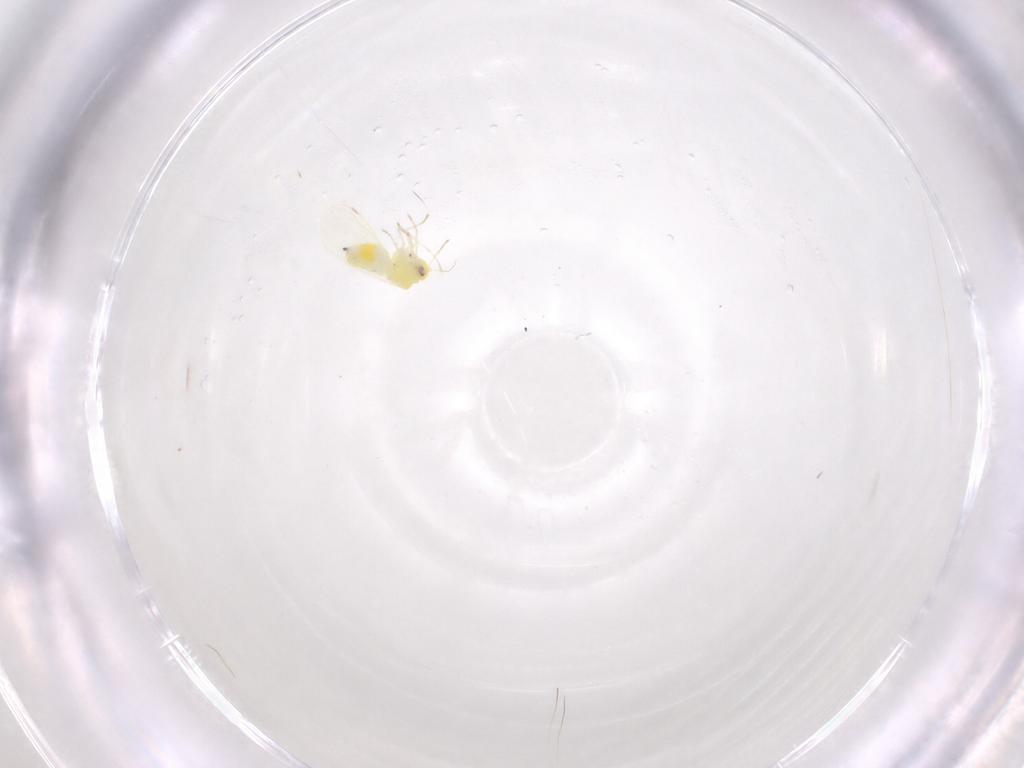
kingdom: Animalia
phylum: Arthropoda
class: Insecta
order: Hemiptera
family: Aleyrodidae
